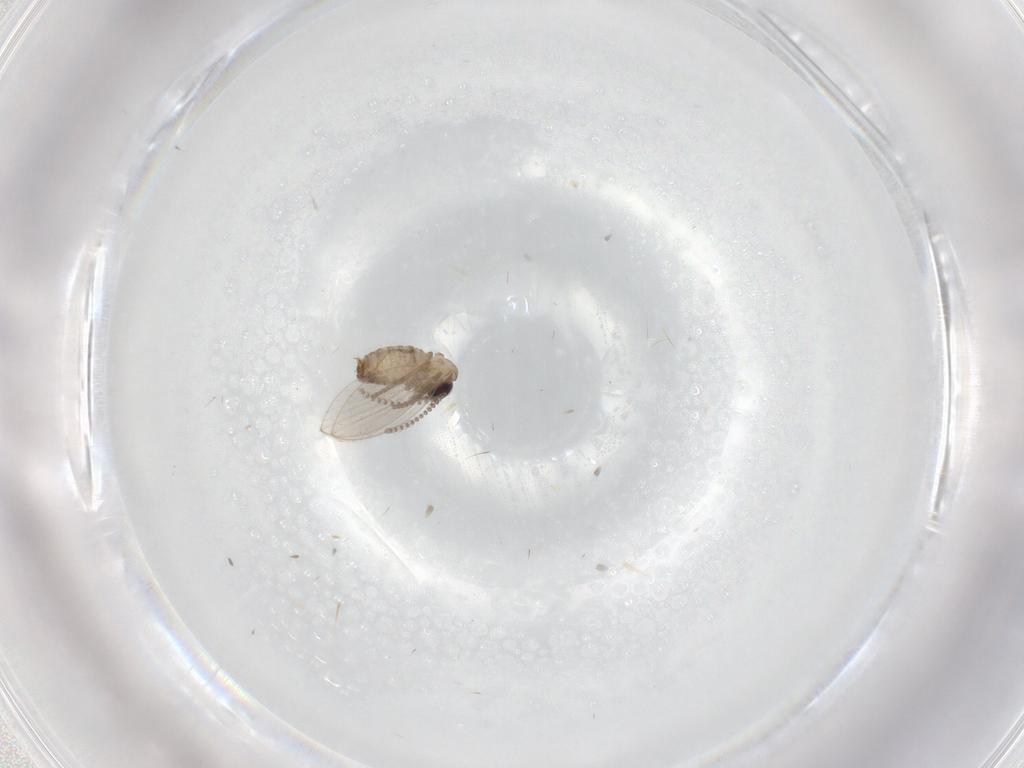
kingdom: Animalia
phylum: Arthropoda
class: Insecta
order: Diptera
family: Psychodidae
